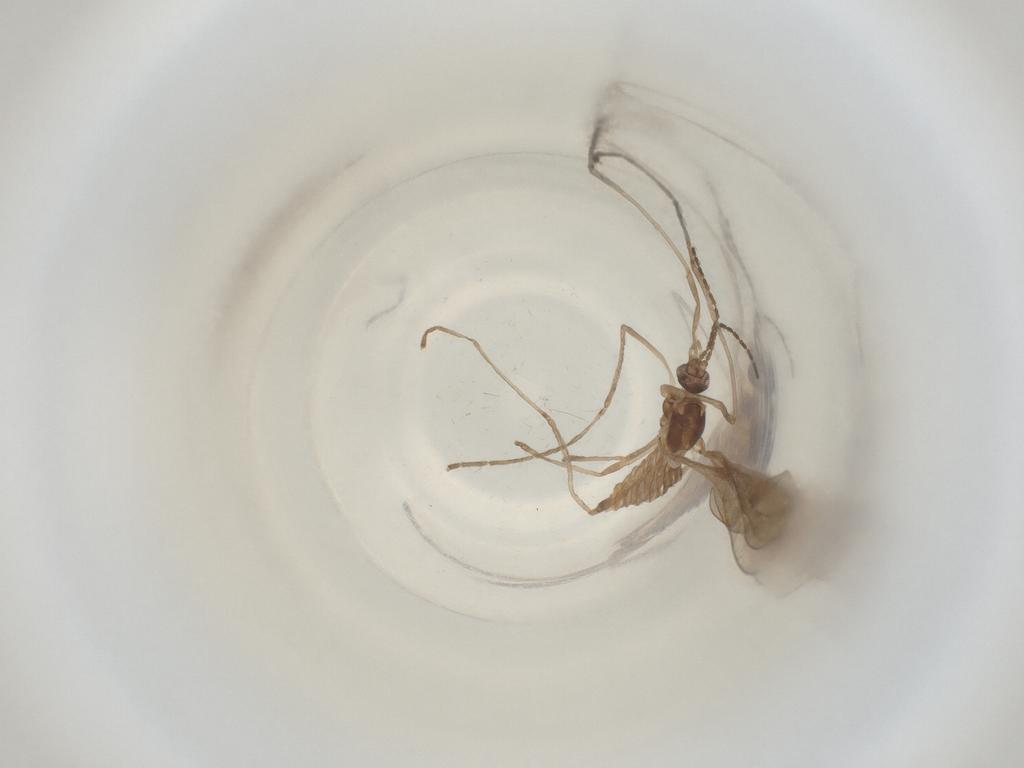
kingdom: Animalia
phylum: Arthropoda
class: Insecta
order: Diptera
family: Cecidomyiidae
